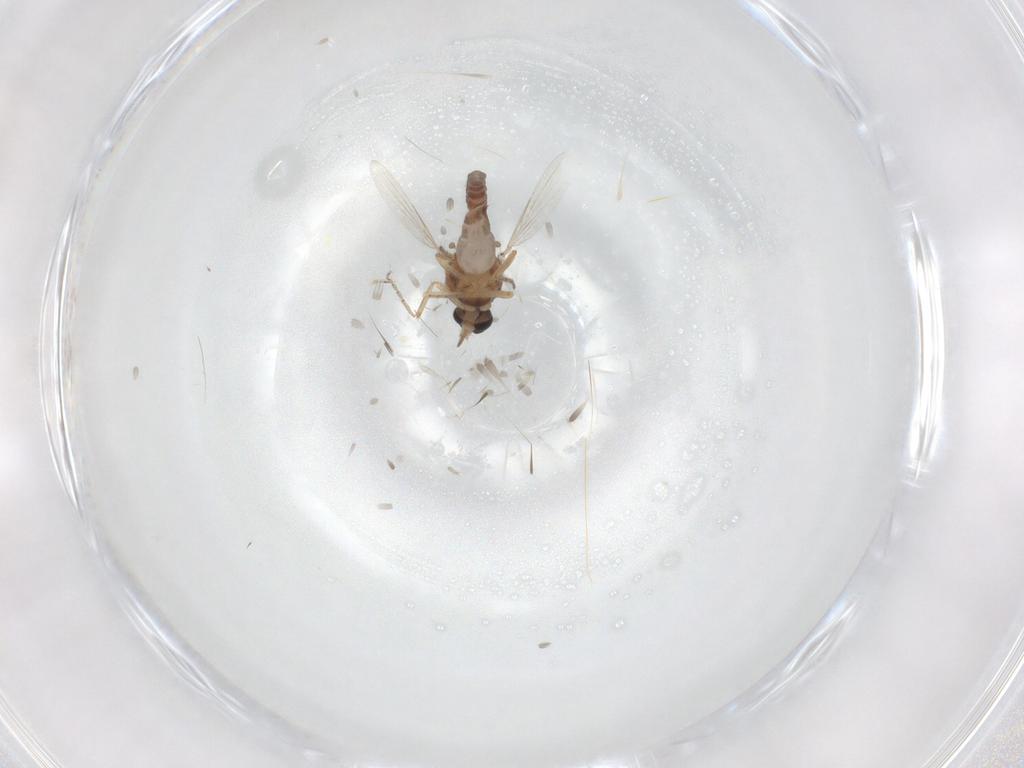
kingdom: Animalia
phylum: Arthropoda
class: Insecta
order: Diptera
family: Ceratopogonidae
